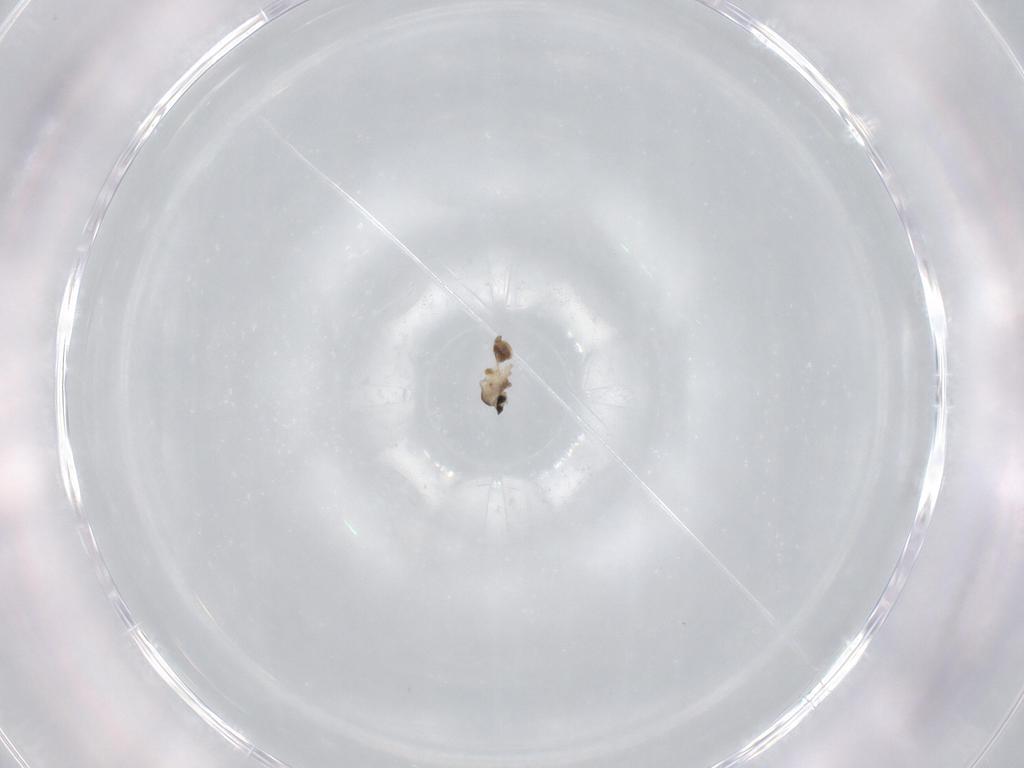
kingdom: Animalia
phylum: Arthropoda
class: Insecta
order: Diptera
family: Cecidomyiidae
